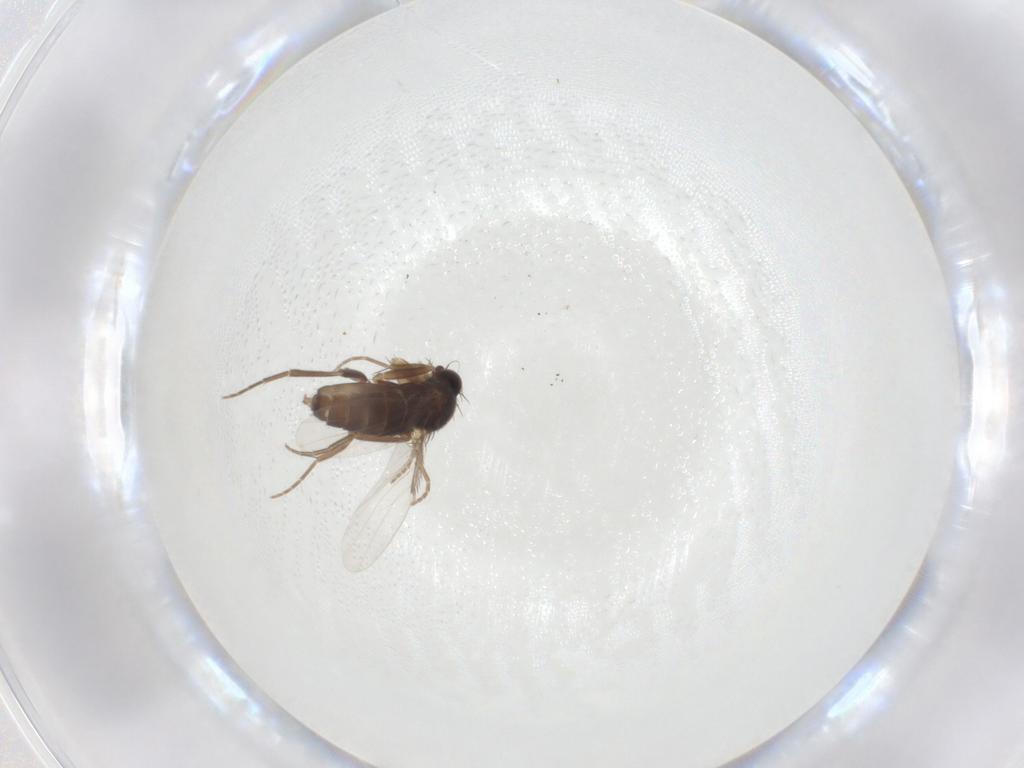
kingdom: Animalia
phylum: Arthropoda
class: Insecta
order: Diptera
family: Phoridae
